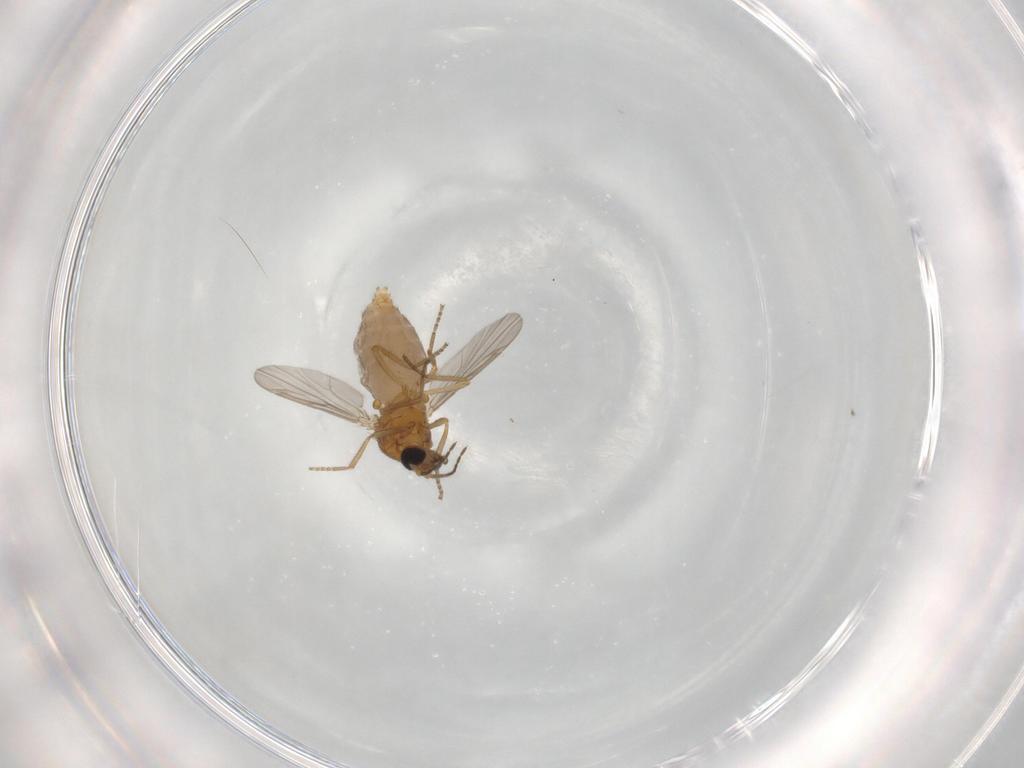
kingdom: Animalia
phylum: Arthropoda
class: Insecta
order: Diptera
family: Ceratopogonidae
